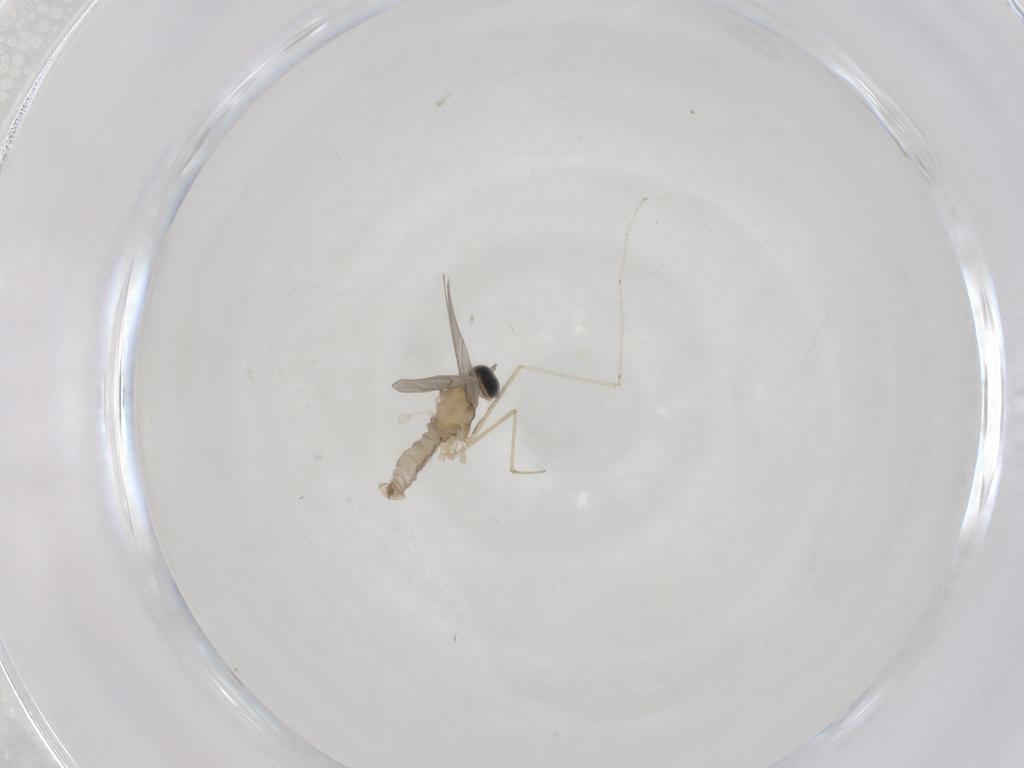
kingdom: Animalia
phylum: Arthropoda
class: Insecta
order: Diptera
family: Cecidomyiidae
